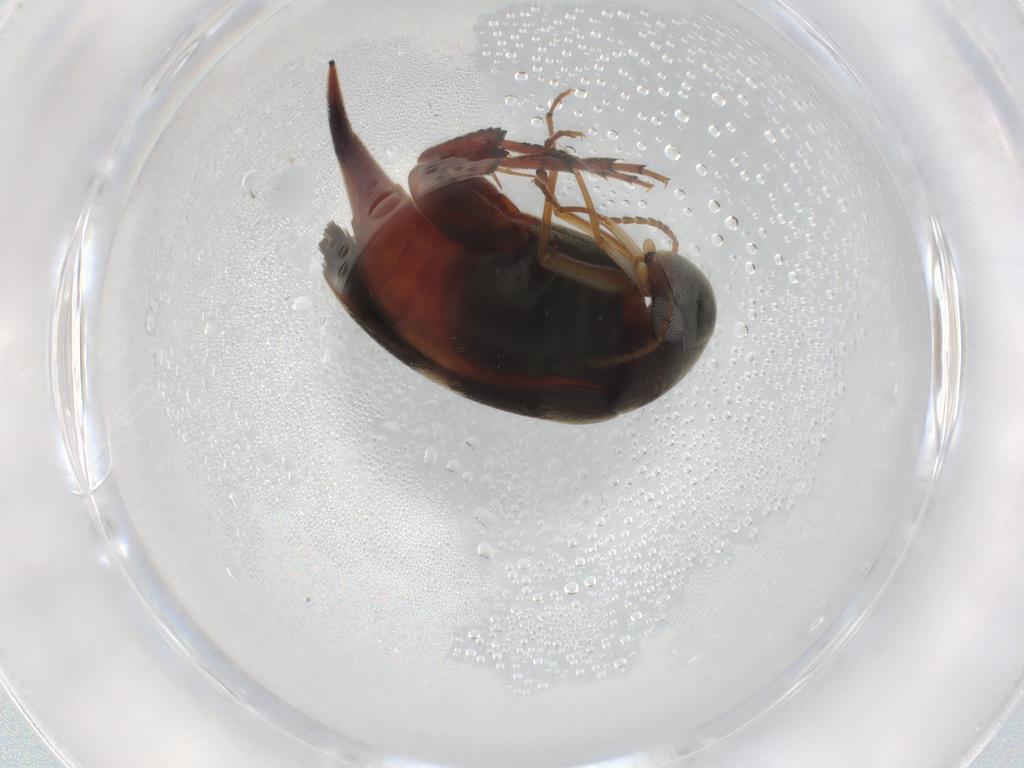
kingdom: Animalia
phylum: Arthropoda
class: Insecta
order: Coleoptera
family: Mordellidae
